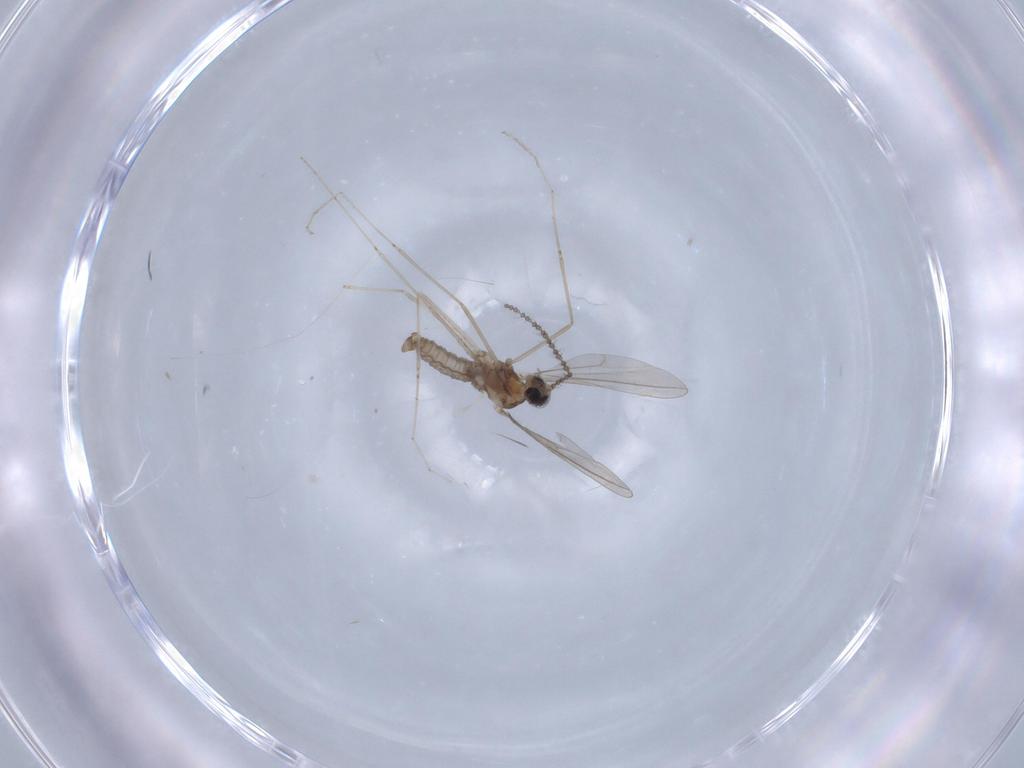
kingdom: Animalia
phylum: Arthropoda
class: Insecta
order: Diptera
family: Cecidomyiidae
